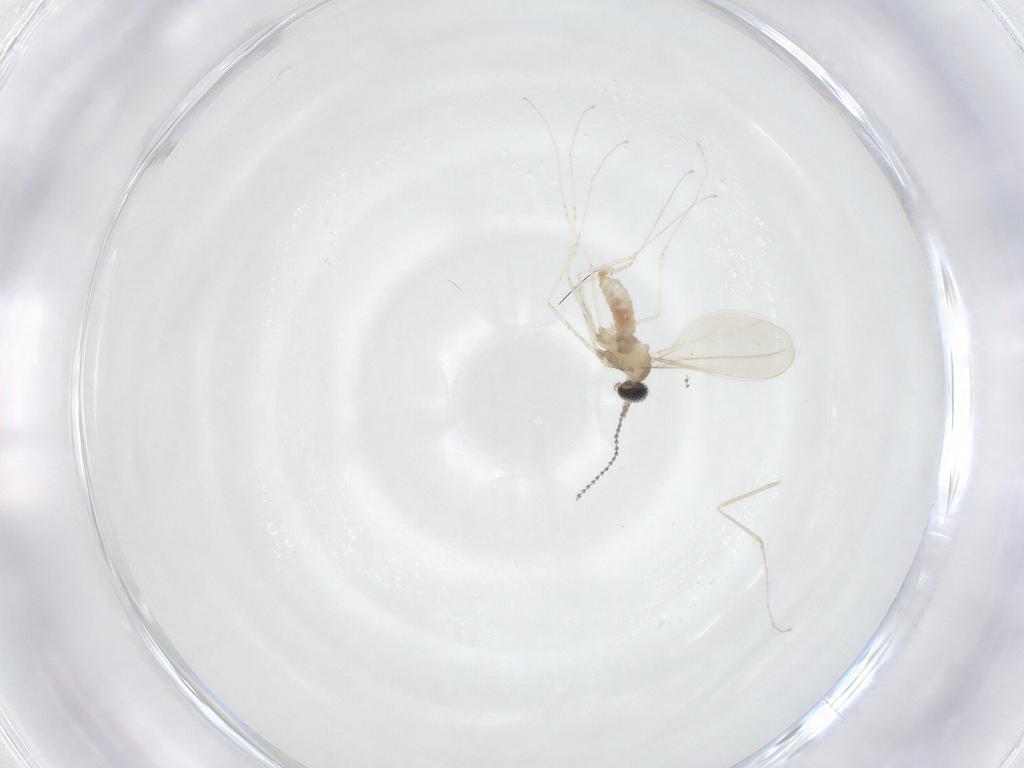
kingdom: Animalia
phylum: Arthropoda
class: Insecta
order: Diptera
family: Cecidomyiidae
